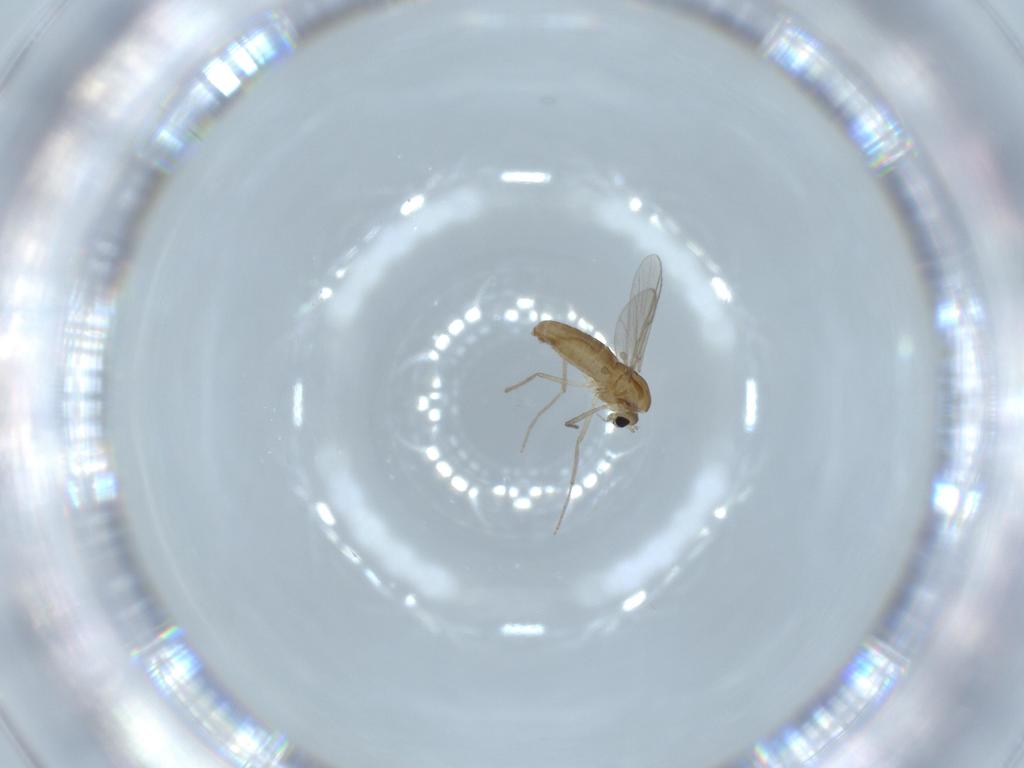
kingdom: Animalia
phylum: Arthropoda
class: Insecta
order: Diptera
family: Chironomidae
